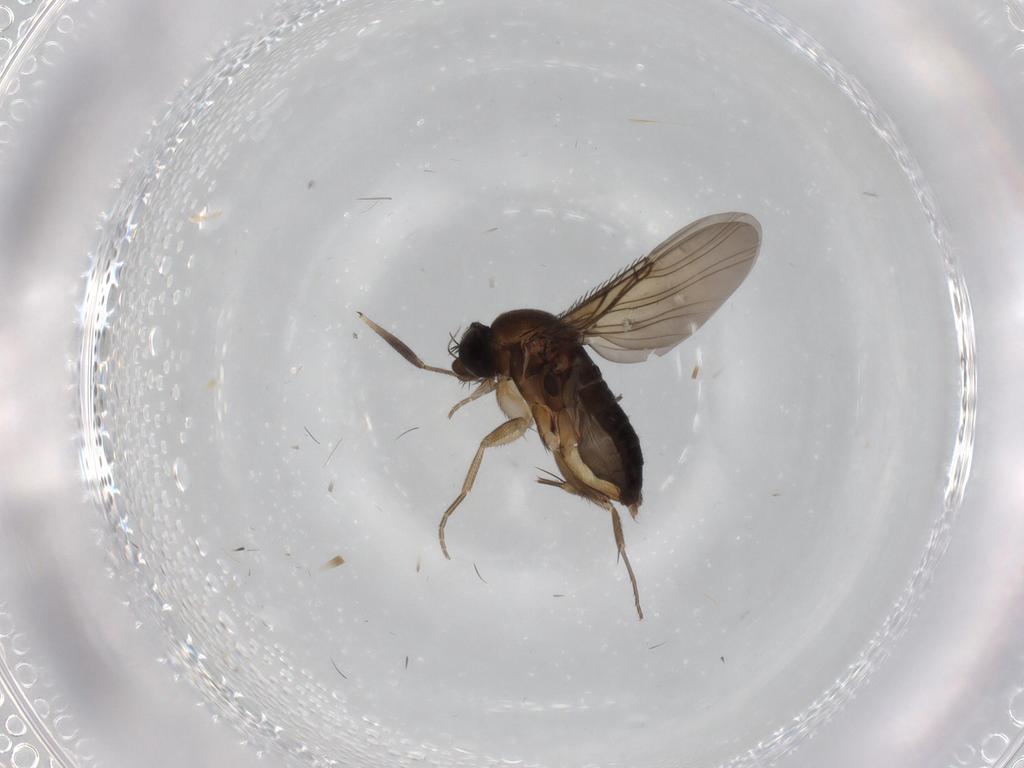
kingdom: Animalia
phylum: Arthropoda
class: Insecta
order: Diptera
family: Phoridae
